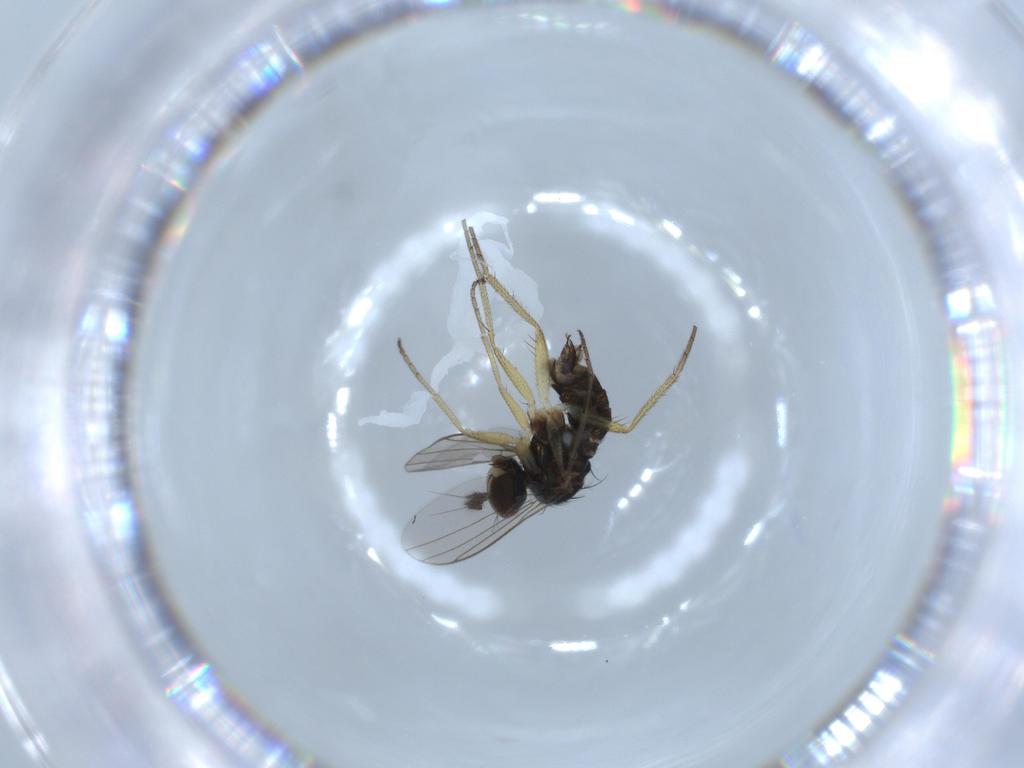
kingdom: Animalia
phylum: Arthropoda
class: Insecta
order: Diptera
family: Dolichopodidae
